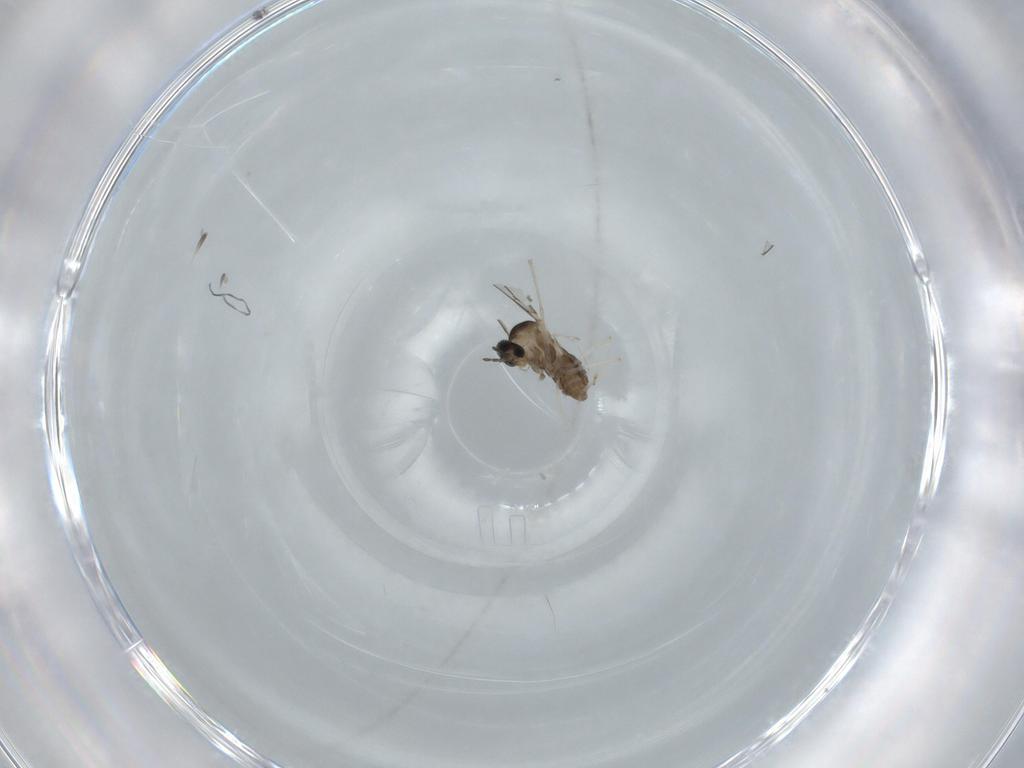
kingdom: Animalia
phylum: Arthropoda
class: Insecta
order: Diptera
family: Cecidomyiidae
